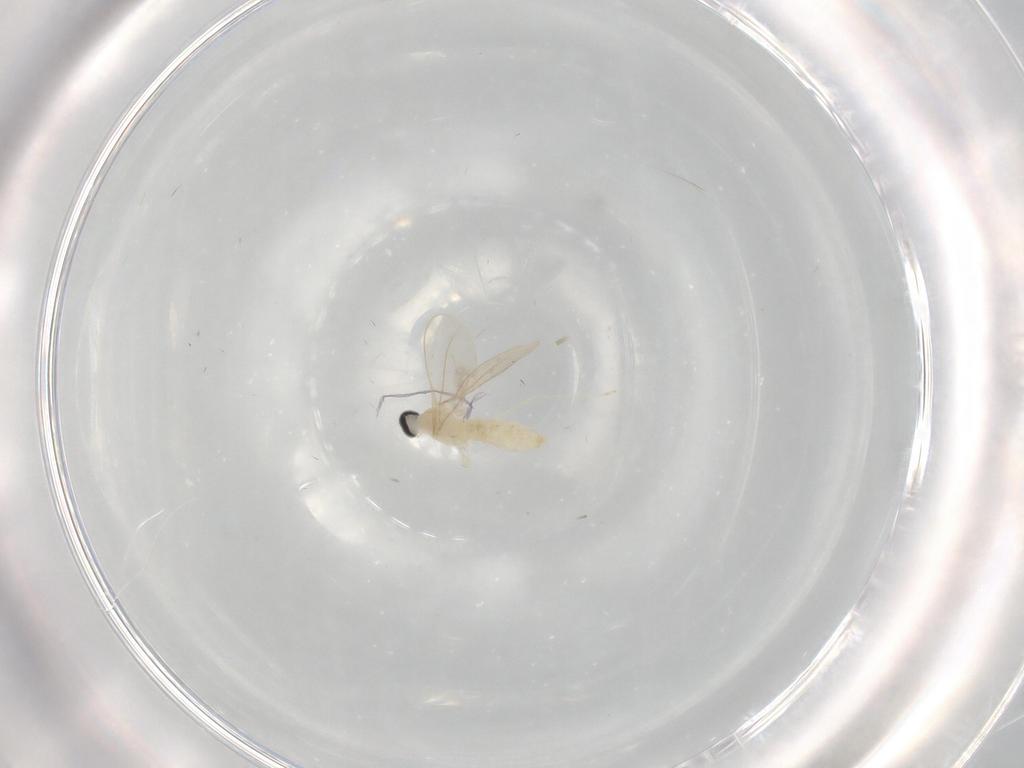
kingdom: Animalia
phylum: Arthropoda
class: Insecta
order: Diptera
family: Cecidomyiidae
